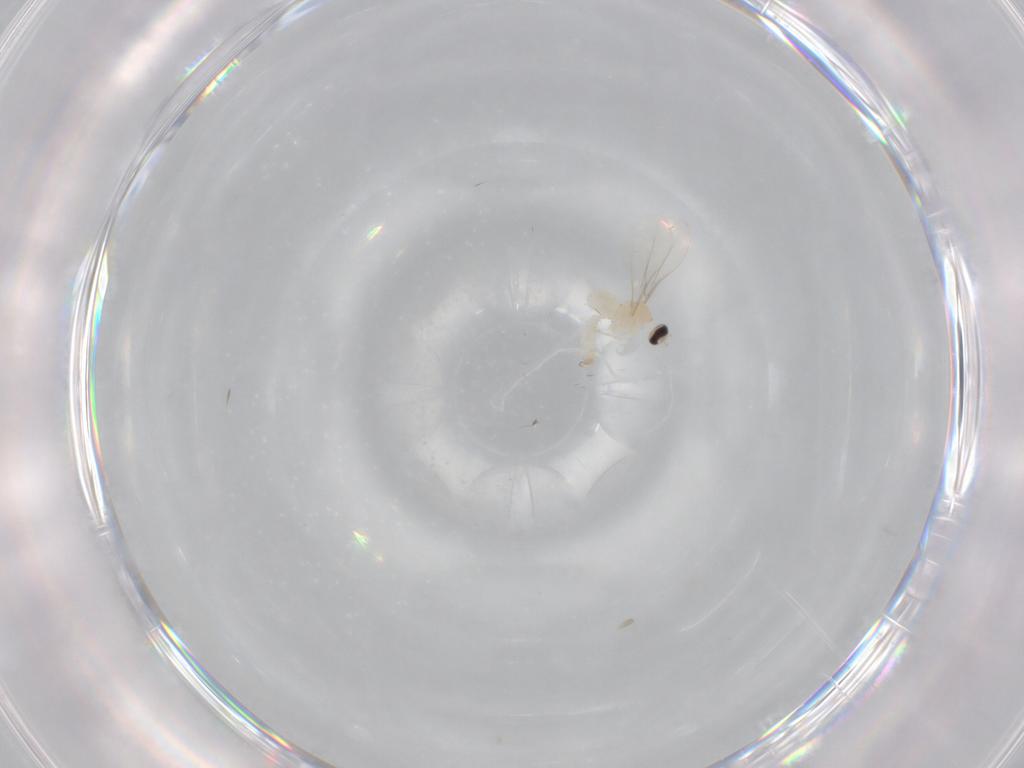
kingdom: Animalia
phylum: Arthropoda
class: Insecta
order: Diptera
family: Cecidomyiidae
